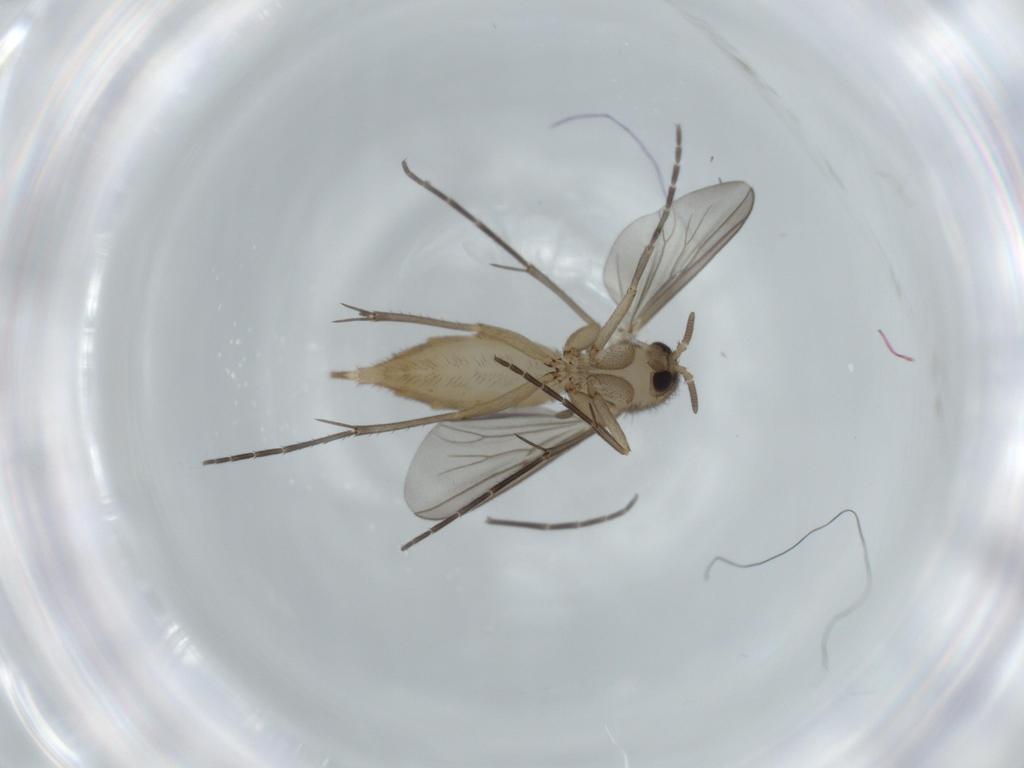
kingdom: Animalia
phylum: Arthropoda
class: Insecta
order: Diptera
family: Mycetophilidae
